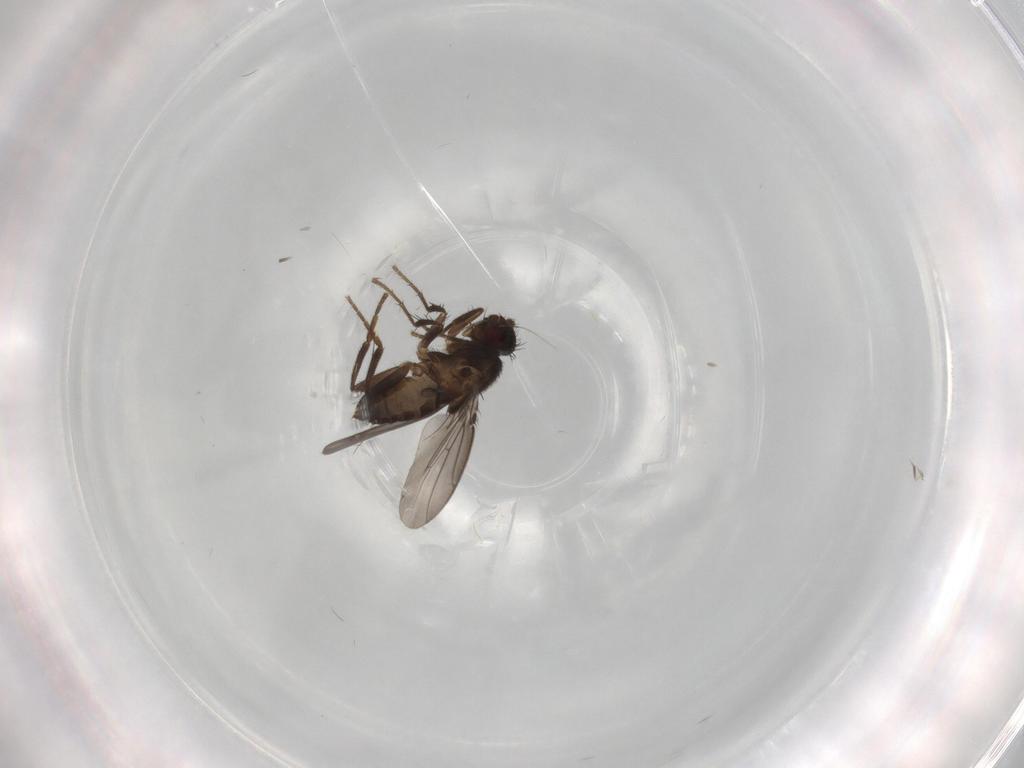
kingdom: Animalia
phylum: Arthropoda
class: Insecta
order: Diptera
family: Sphaeroceridae
